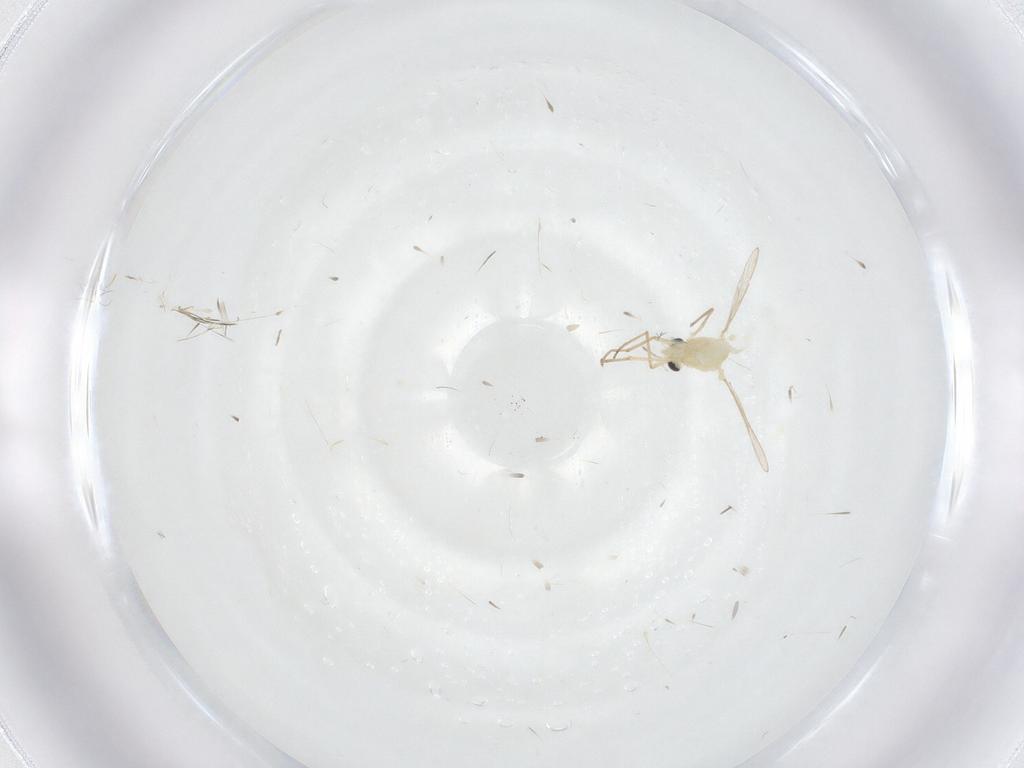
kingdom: Animalia
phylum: Arthropoda
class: Insecta
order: Diptera
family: Chironomidae
